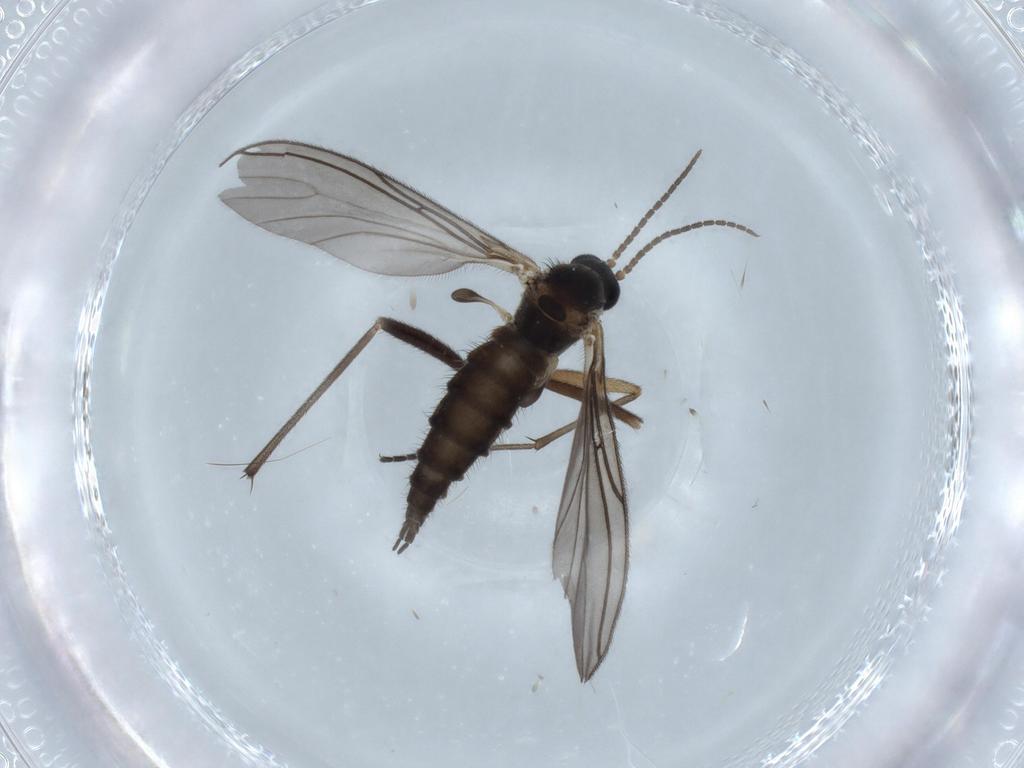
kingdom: Animalia
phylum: Arthropoda
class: Insecta
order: Diptera
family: Sciaridae
